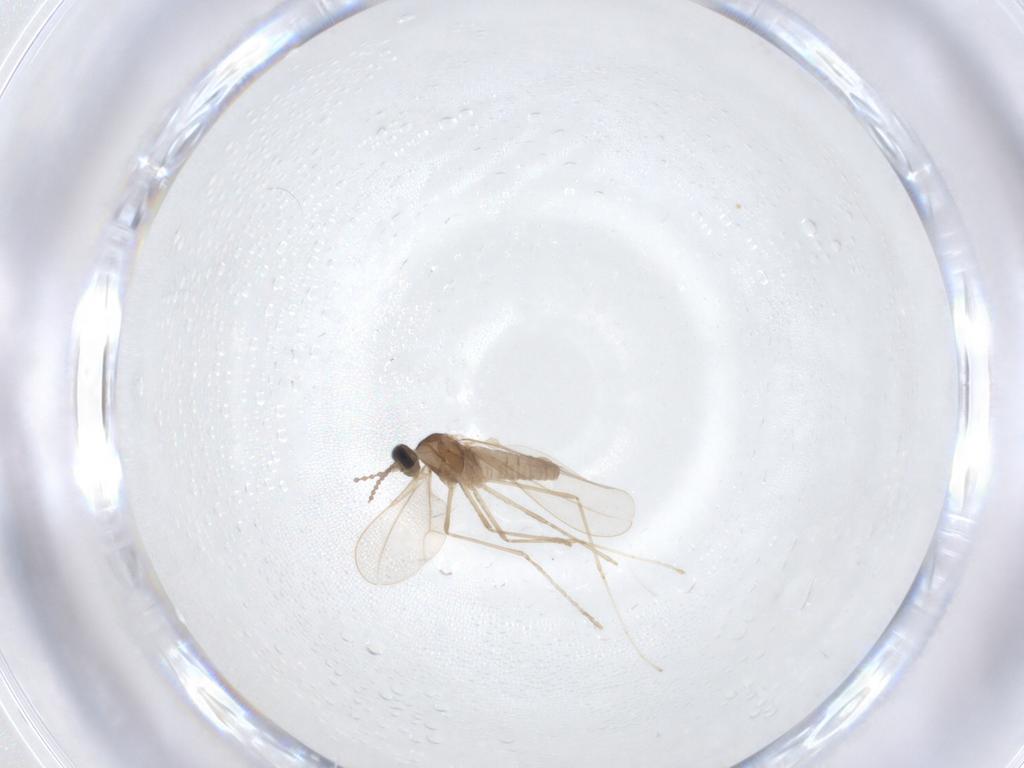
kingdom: Animalia
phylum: Arthropoda
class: Insecta
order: Diptera
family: Cecidomyiidae
